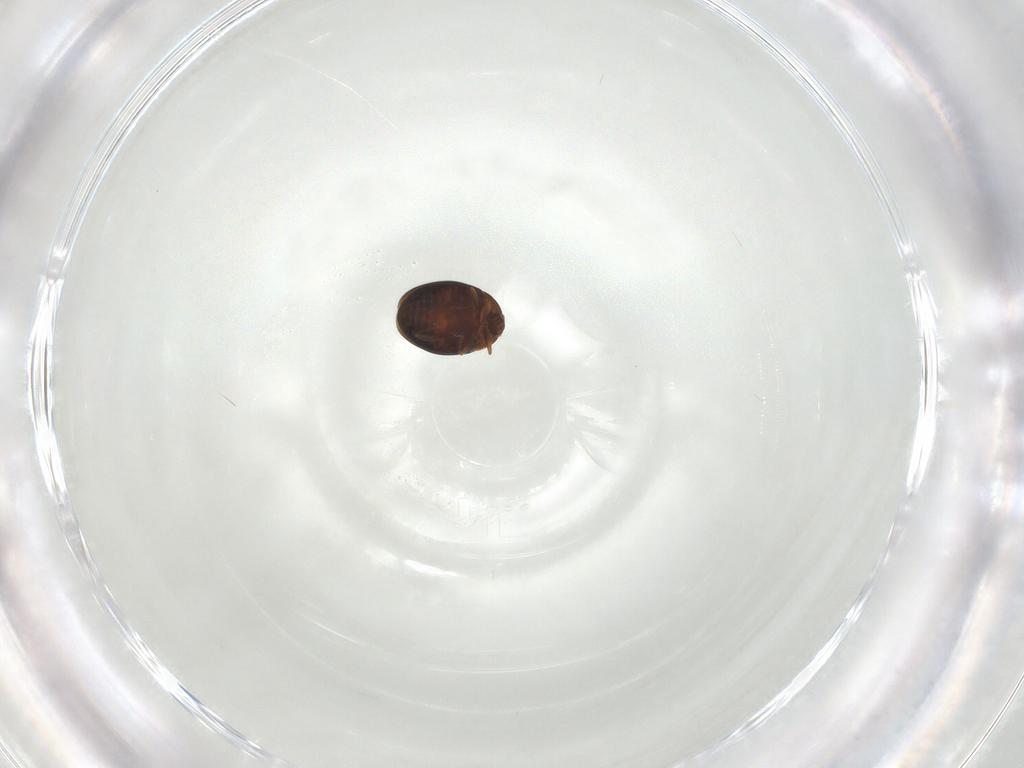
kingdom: Animalia
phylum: Arthropoda
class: Insecta
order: Coleoptera
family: Corylophidae
